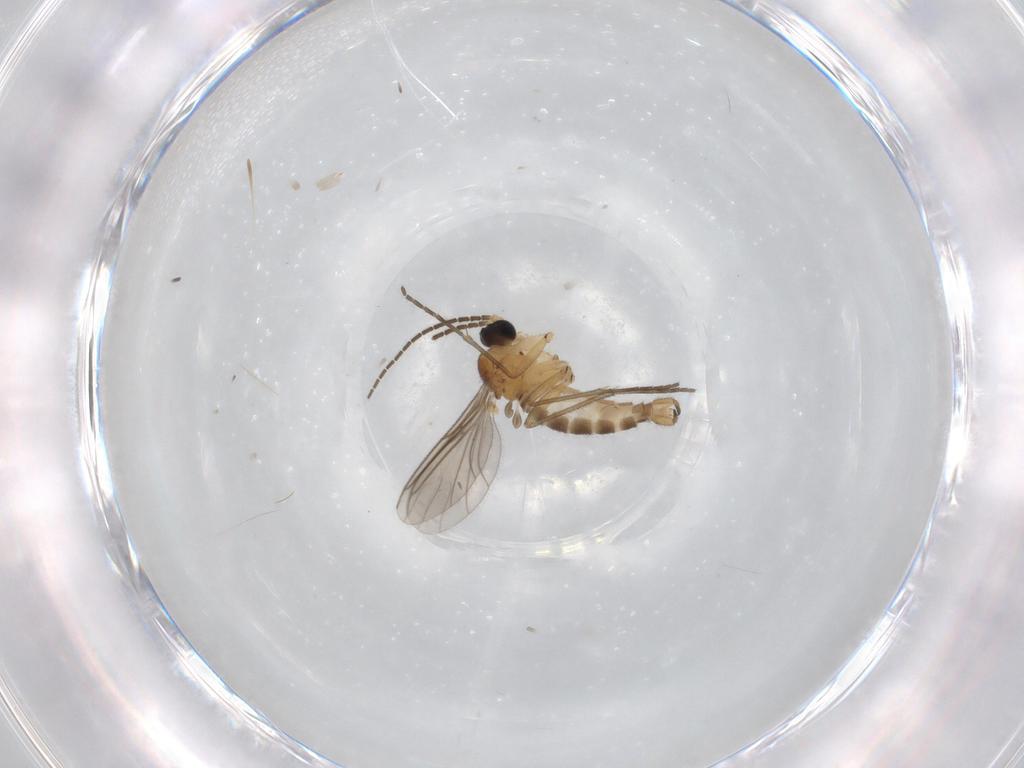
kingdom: Animalia
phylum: Arthropoda
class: Insecta
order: Diptera
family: Sciaridae
